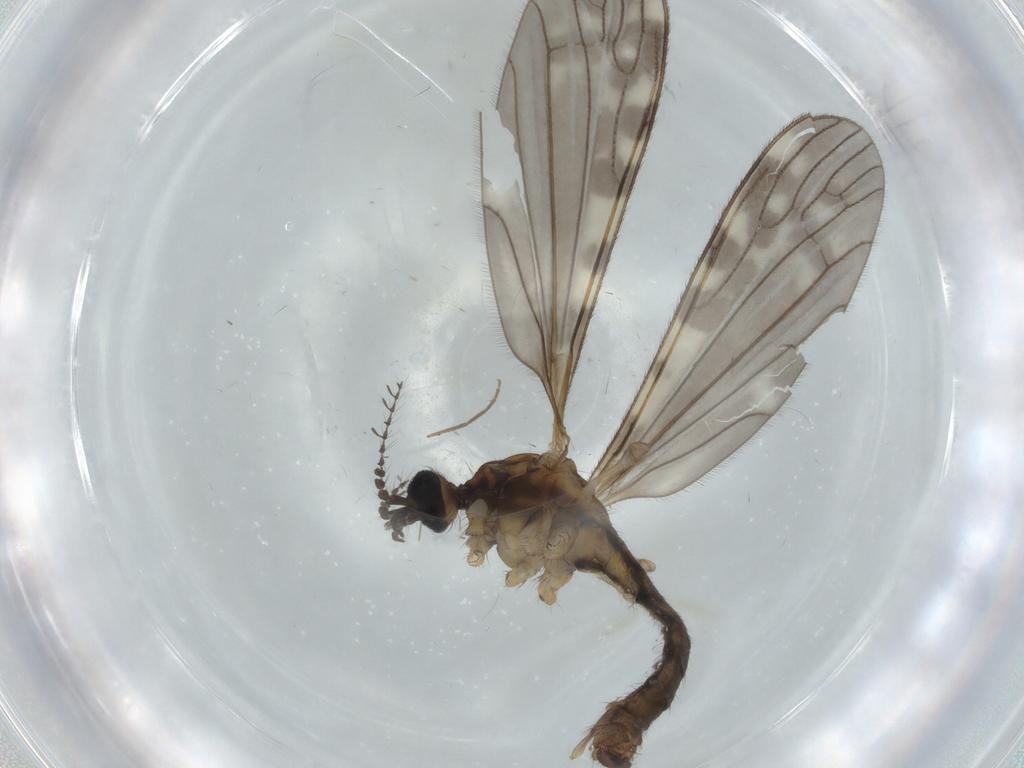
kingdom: Animalia
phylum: Arthropoda
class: Insecta
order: Diptera
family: Chironomidae
